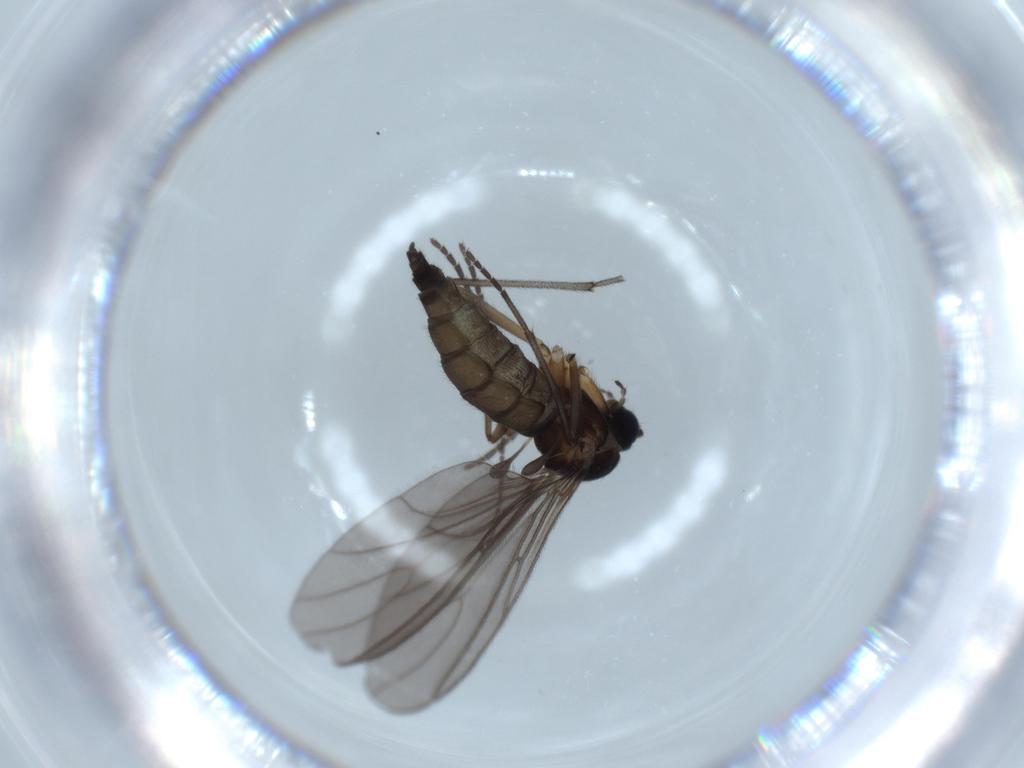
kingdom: Animalia
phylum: Arthropoda
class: Insecta
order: Diptera
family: Sciaridae
